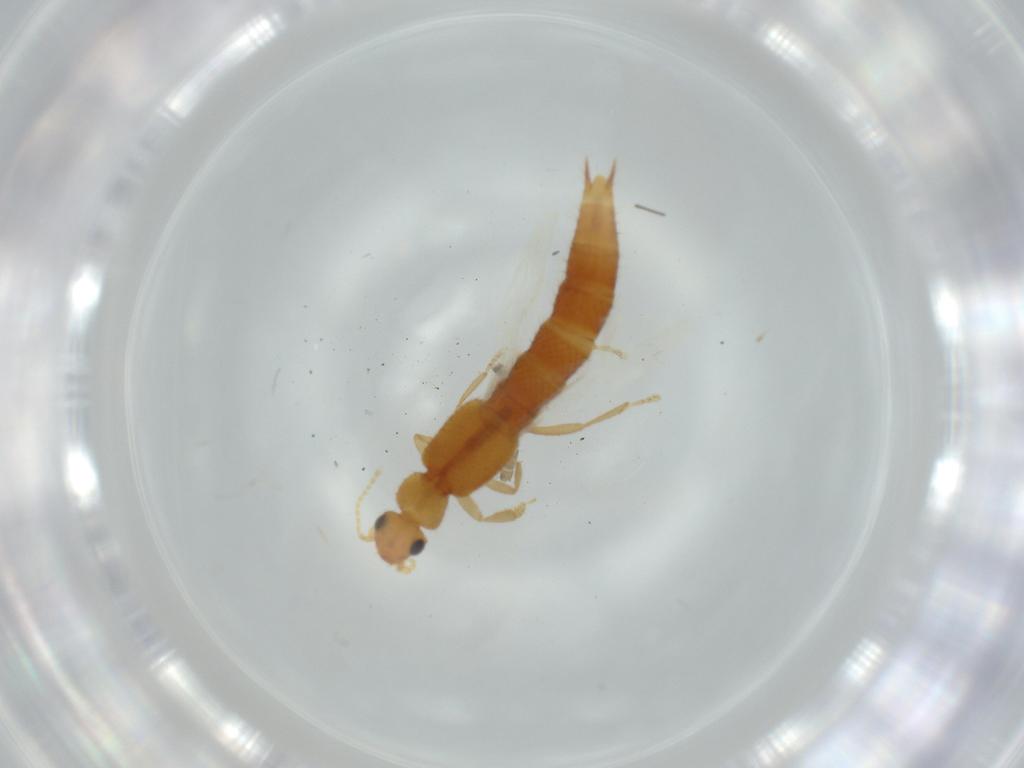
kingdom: Animalia
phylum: Arthropoda
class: Insecta
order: Coleoptera
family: Staphylinidae
